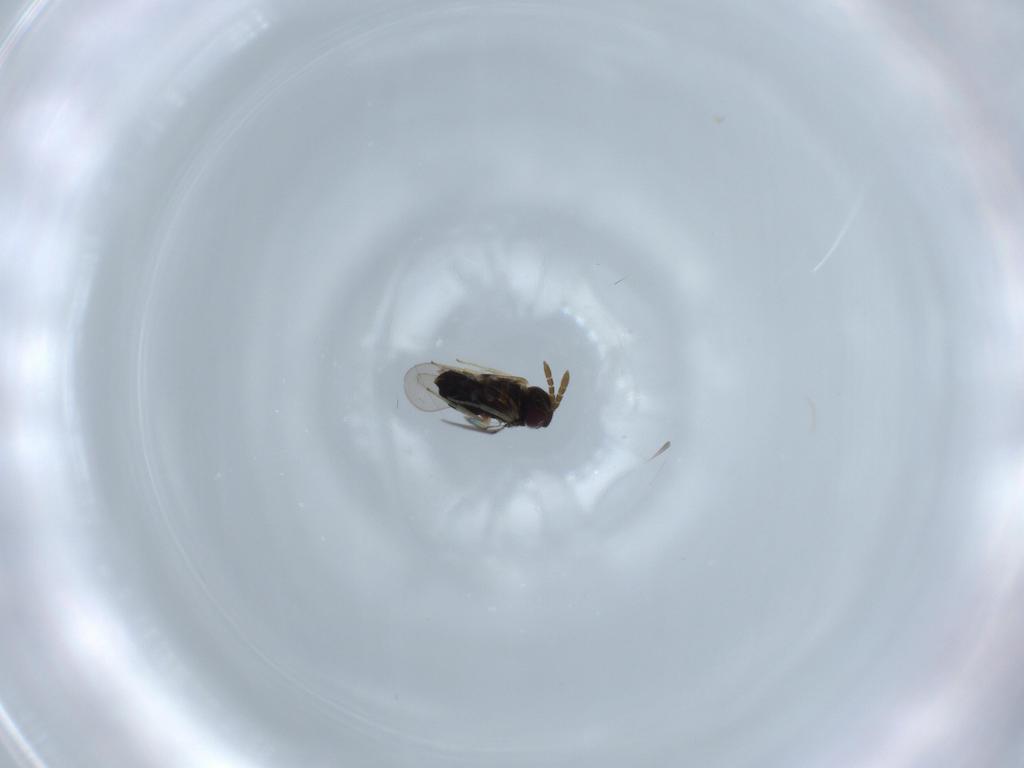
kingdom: Animalia
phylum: Arthropoda
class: Insecta
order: Hymenoptera
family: Aphelinidae
